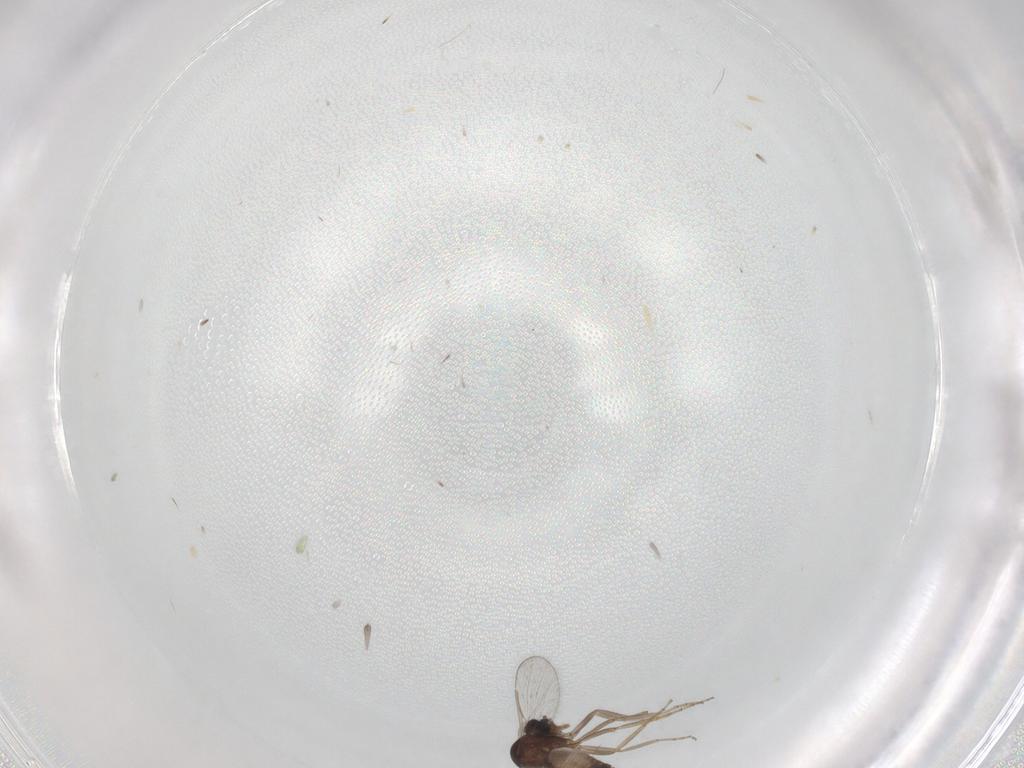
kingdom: Animalia
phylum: Arthropoda
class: Insecta
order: Diptera
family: Ceratopogonidae
